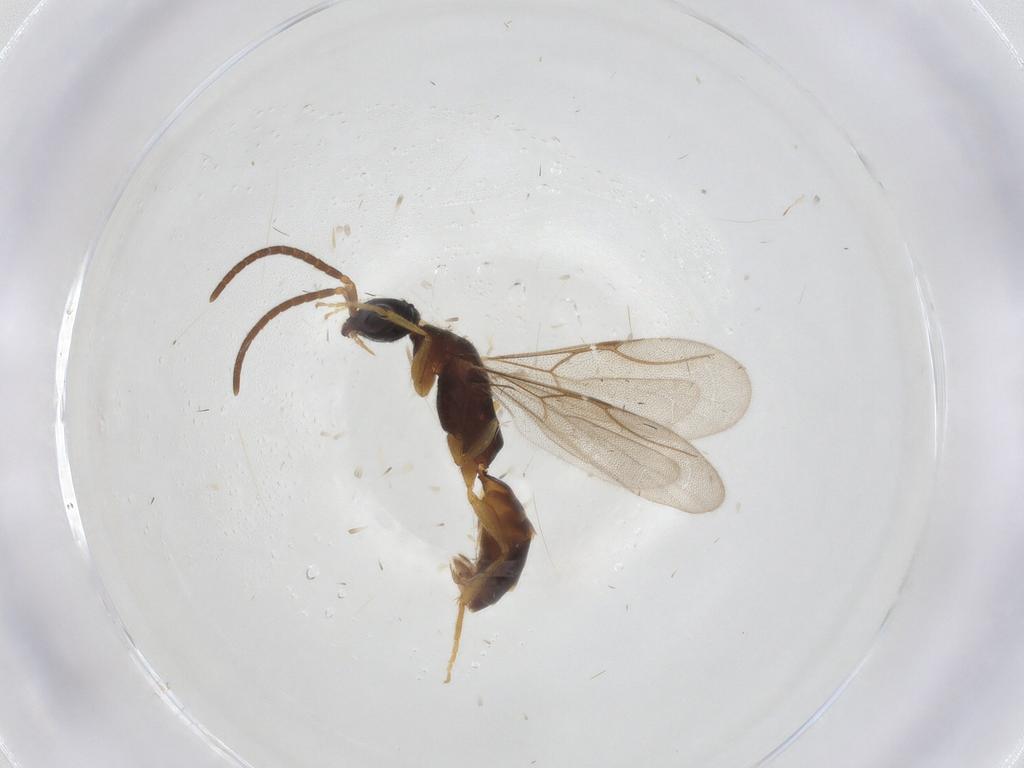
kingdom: Animalia
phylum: Arthropoda
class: Insecta
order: Hymenoptera
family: Bethylidae
